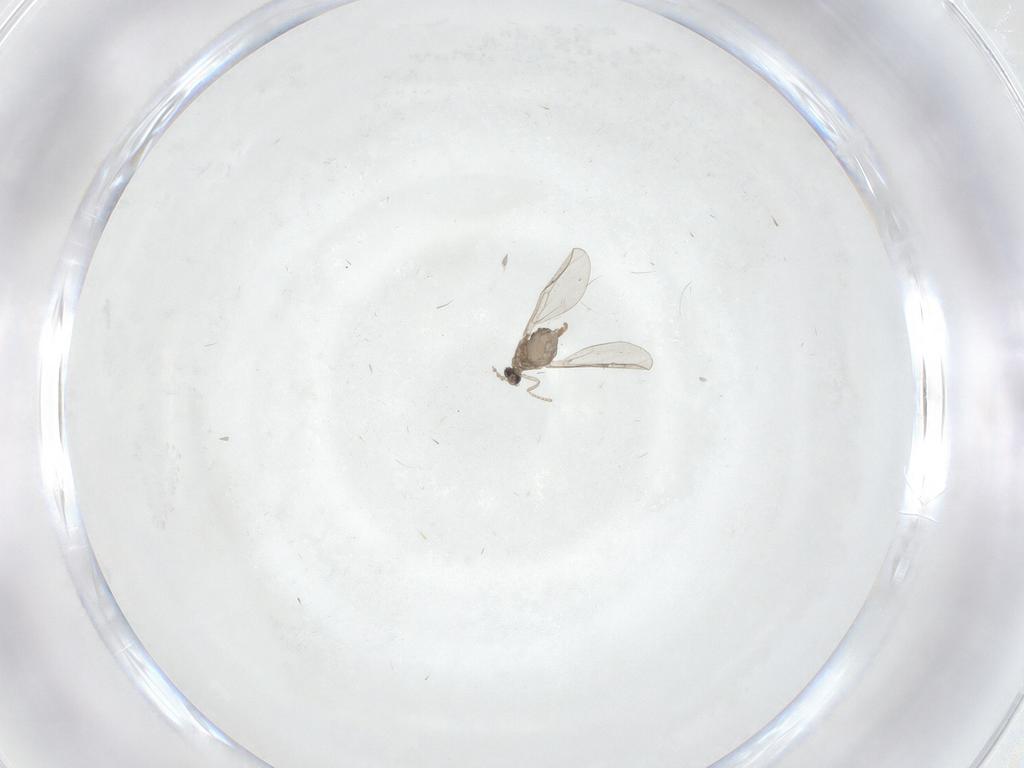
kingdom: Animalia
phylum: Arthropoda
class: Insecta
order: Diptera
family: Cecidomyiidae
